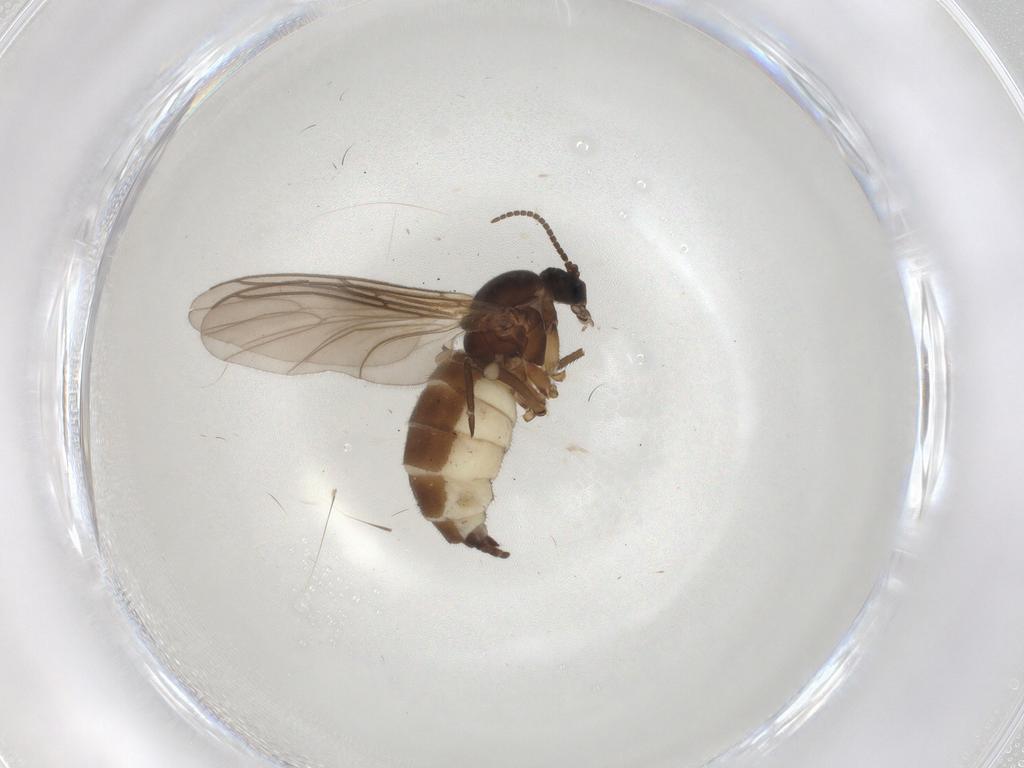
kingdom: Animalia
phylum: Arthropoda
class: Insecta
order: Diptera
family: Sciaridae
